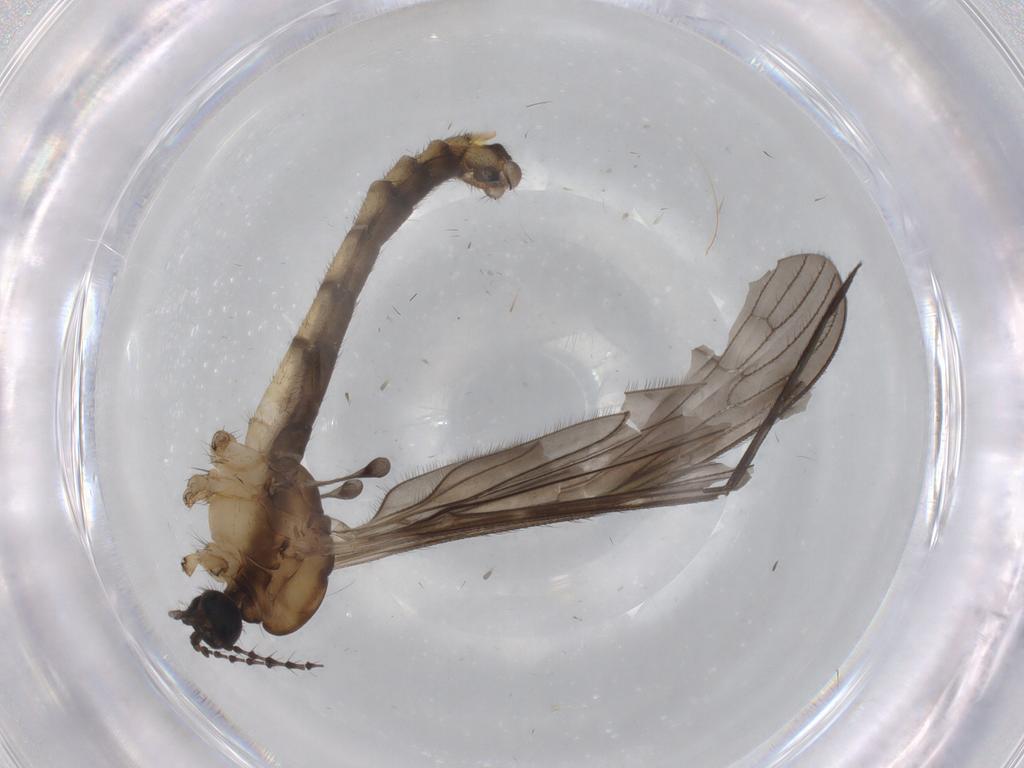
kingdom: Animalia
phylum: Arthropoda
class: Insecta
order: Diptera
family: Limoniidae
